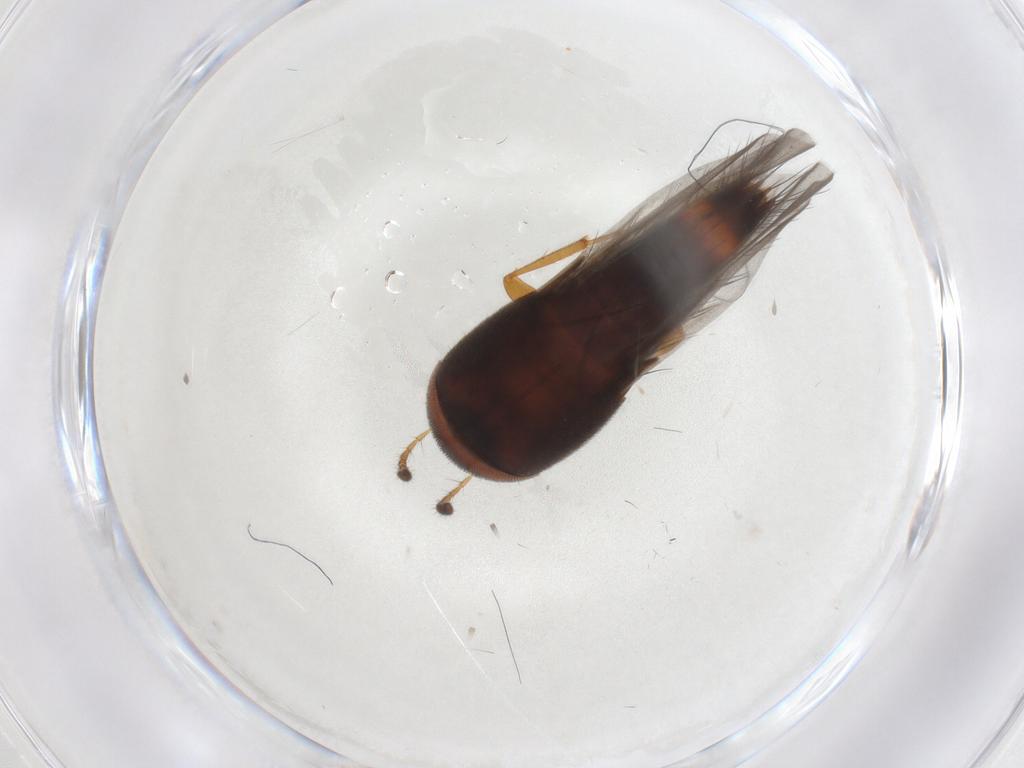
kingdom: Animalia
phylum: Arthropoda
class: Insecta
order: Coleoptera
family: Staphylinidae
